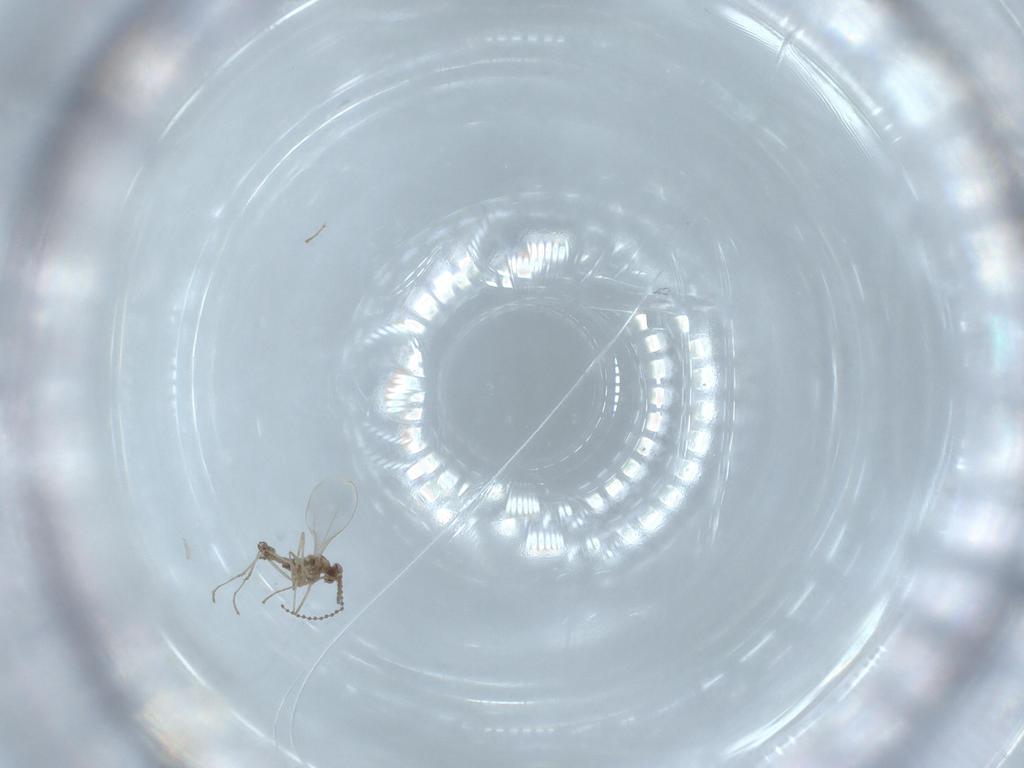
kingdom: Animalia
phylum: Arthropoda
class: Insecta
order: Diptera
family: Cecidomyiidae
